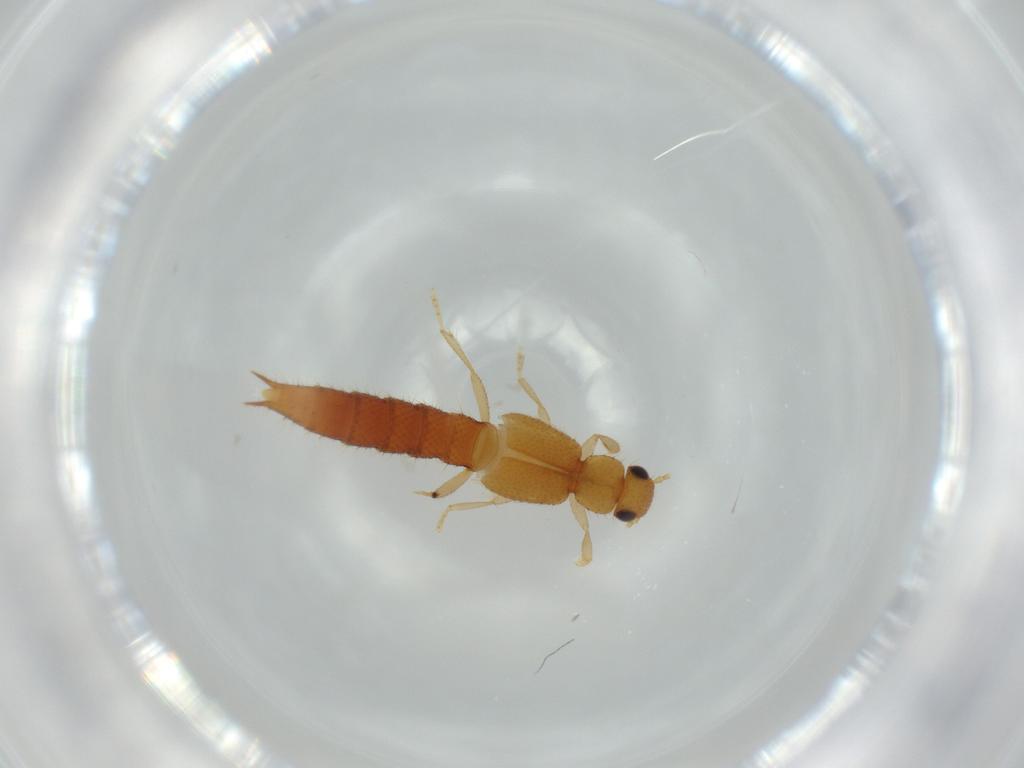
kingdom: Animalia
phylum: Arthropoda
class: Insecta
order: Coleoptera
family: Staphylinidae
